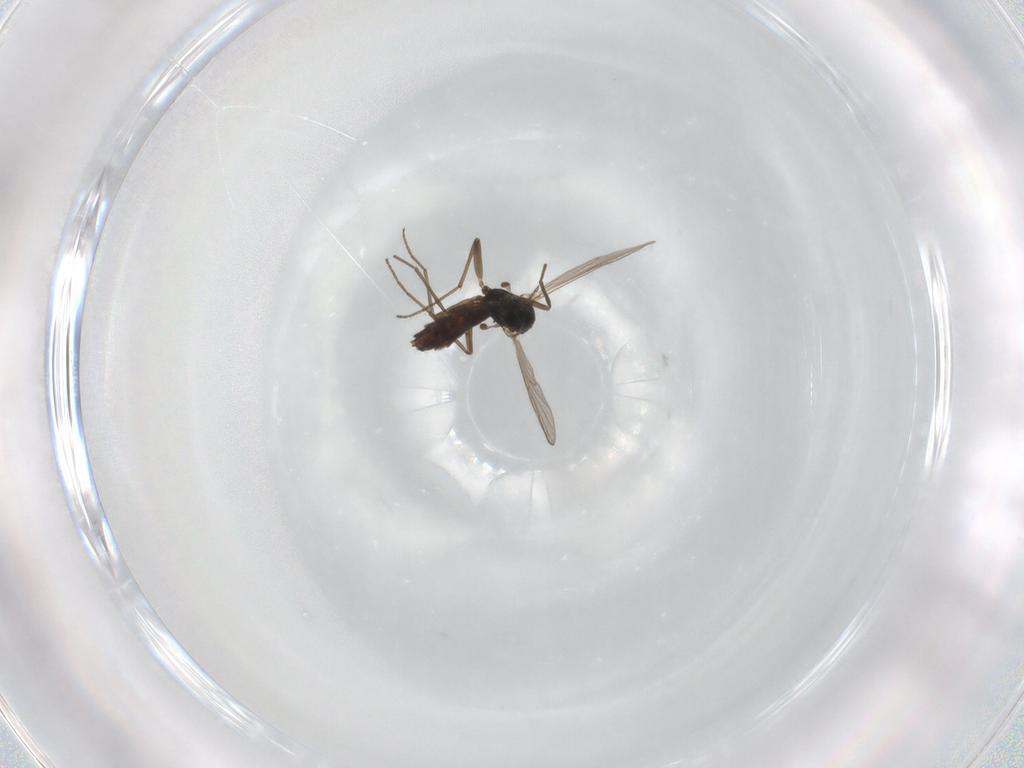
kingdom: Animalia
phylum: Arthropoda
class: Insecta
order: Diptera
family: Chironomidae
